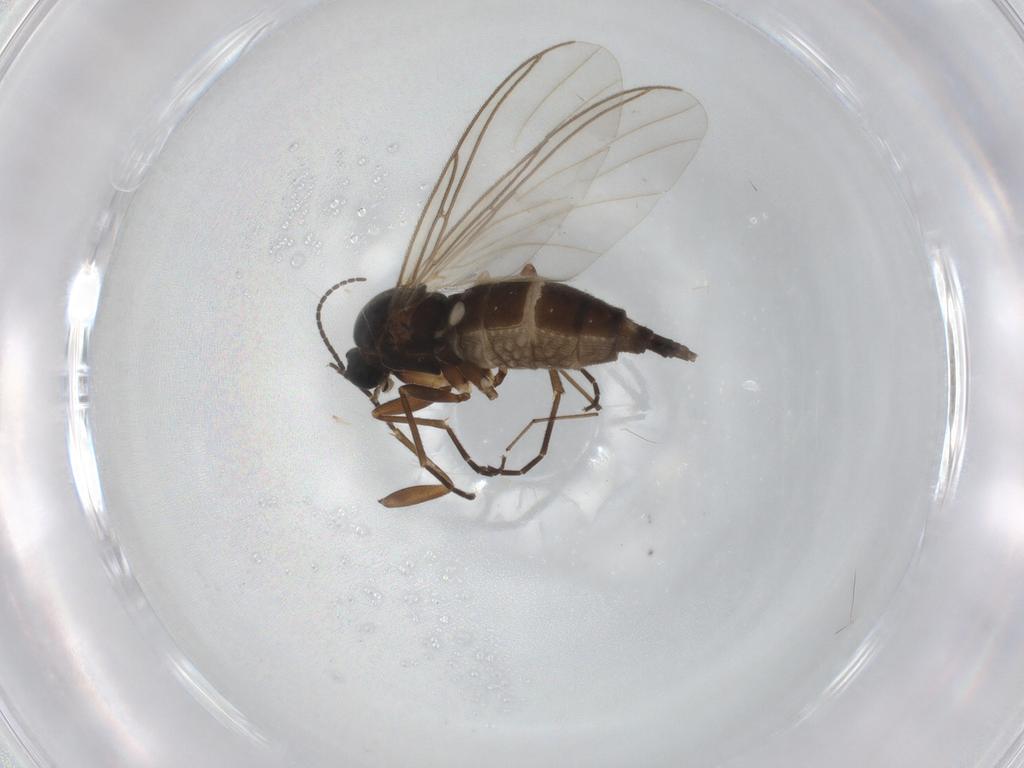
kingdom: Animalia
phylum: Arthropoda
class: Insecta
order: Diptera
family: Sciaridae
